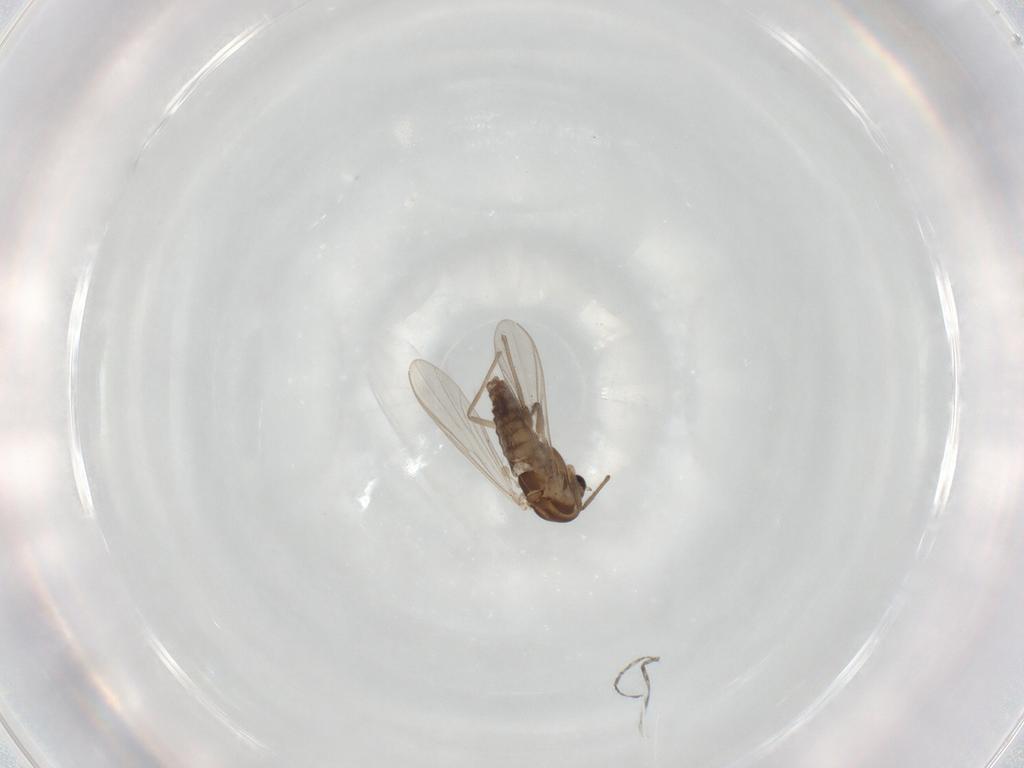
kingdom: Animalia
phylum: Arthropoda
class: Insecta
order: Diptera
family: Chironomidae
